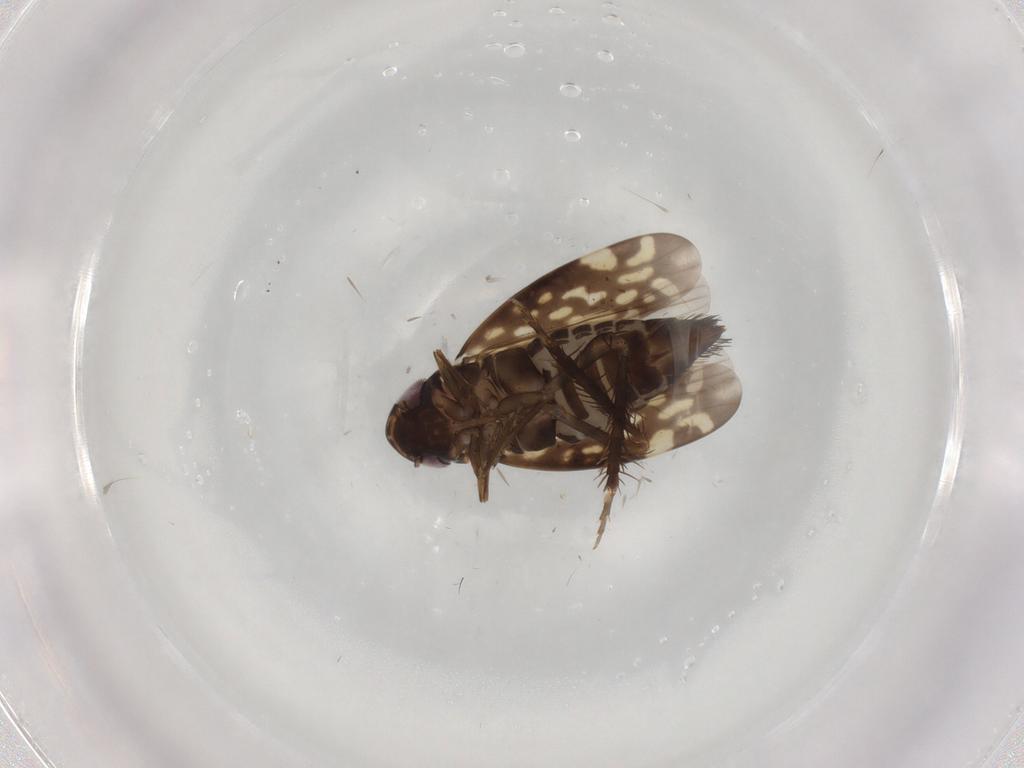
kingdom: Animalia
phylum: Arthropoda
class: Insecta
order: Hemiptera
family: Cicadellidae
